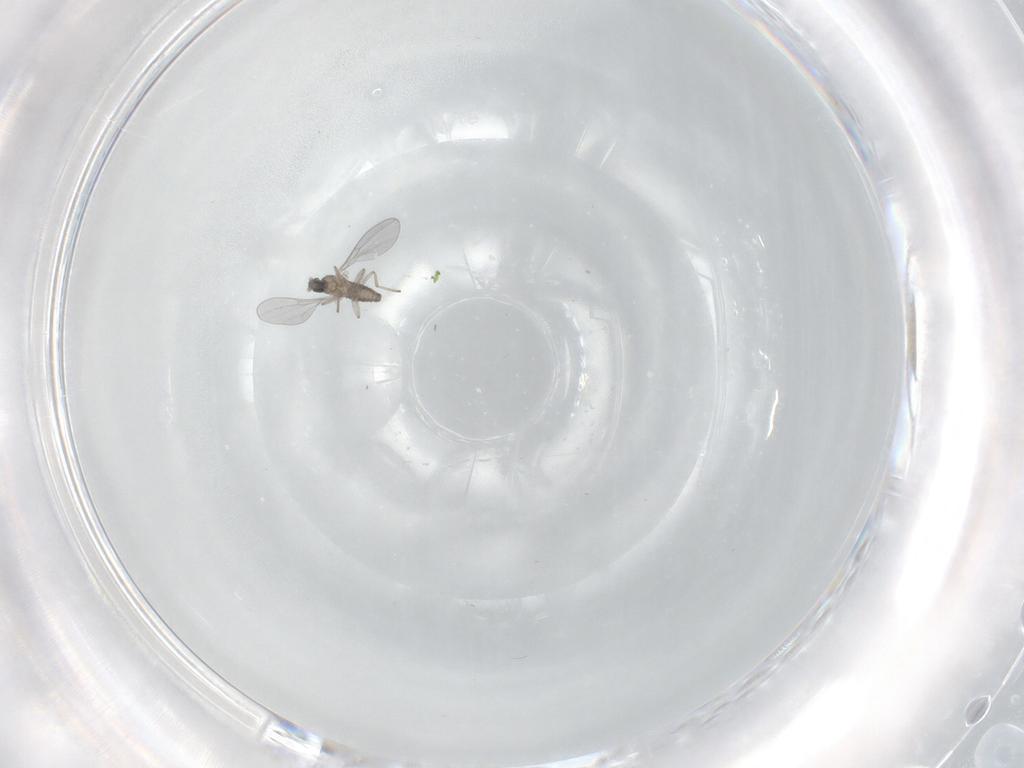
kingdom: Animalia
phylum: Arthropoda
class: Insecta
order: Diptera
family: Cecidomyiidae
